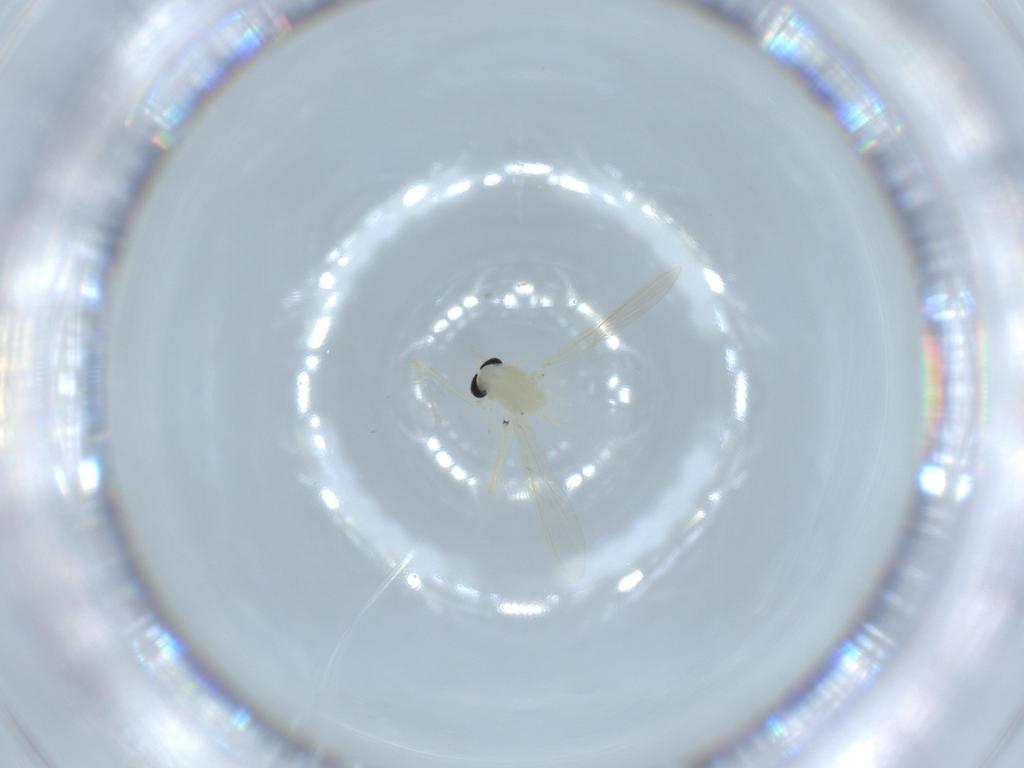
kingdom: Animalia
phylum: Arthropoda
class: Insecta
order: Diptera
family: Chironomidae
